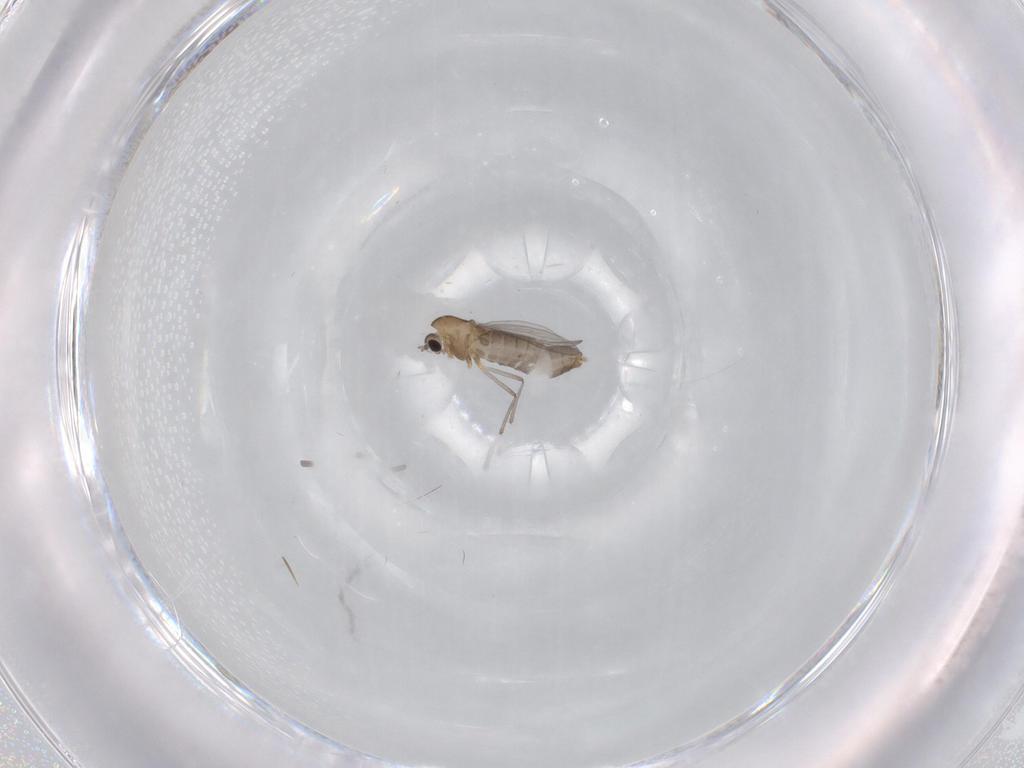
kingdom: Animalia
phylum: Arthropoda
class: Insecta
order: Diptera
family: Chironomidae
